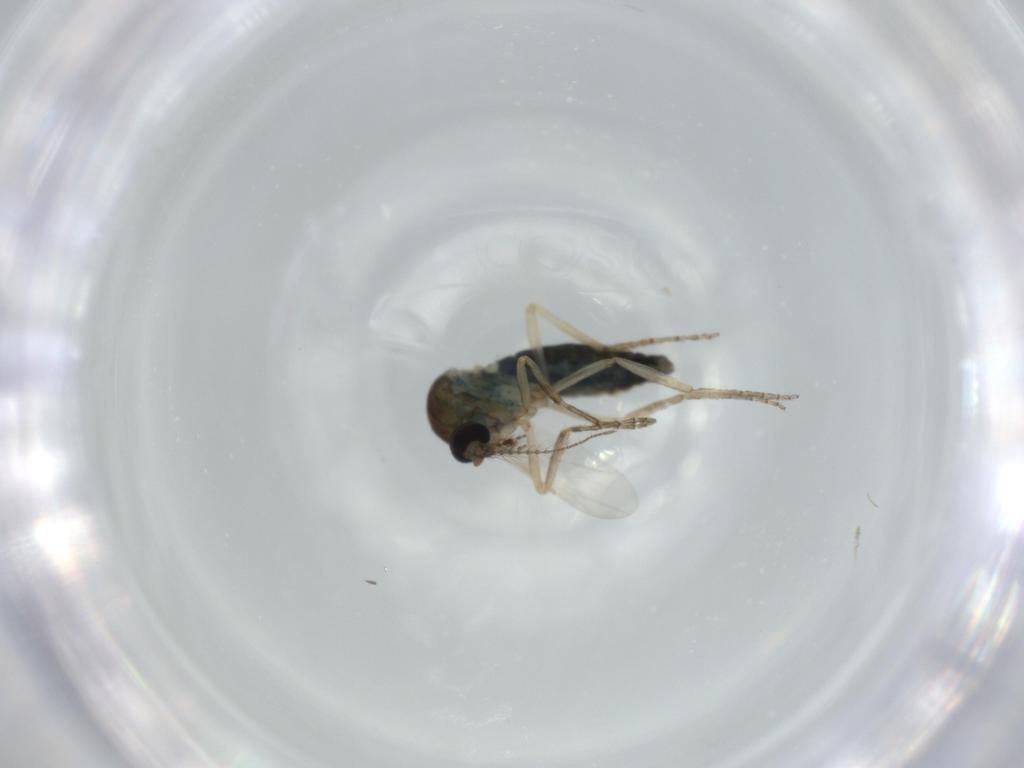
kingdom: Animalia
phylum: Arthropoda
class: Insecta
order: Diptera
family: Ceratopogonidae
